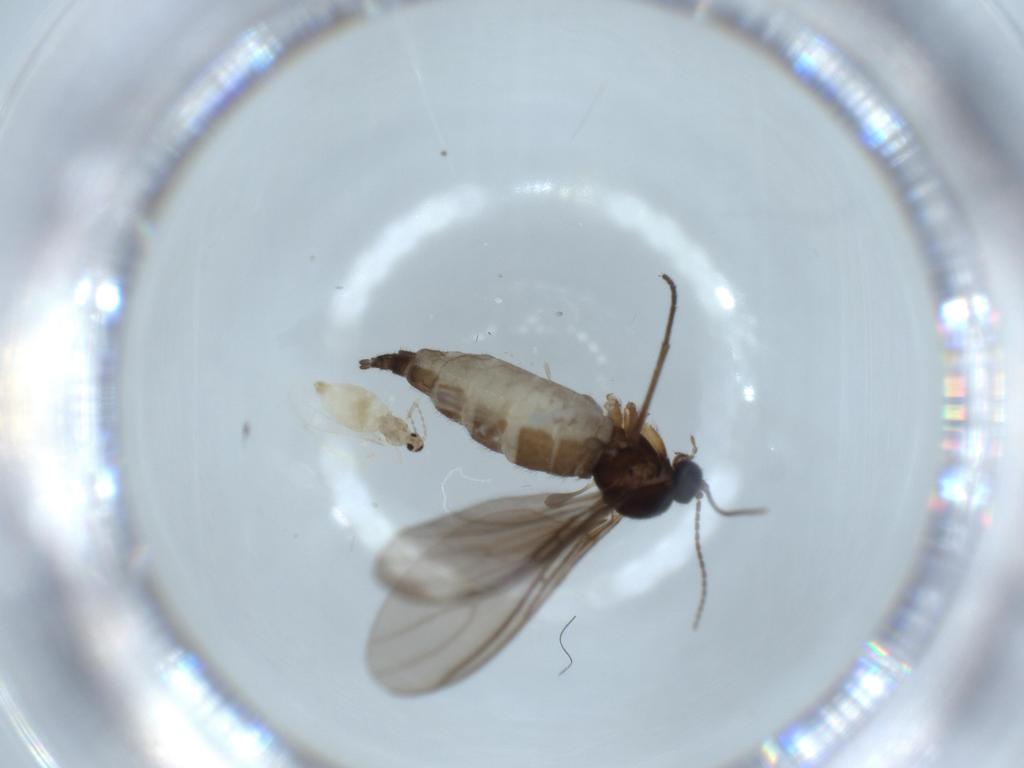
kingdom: Animalia
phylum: Arthropoda
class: Insecta
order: Diptera
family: Cecidomyiidae
